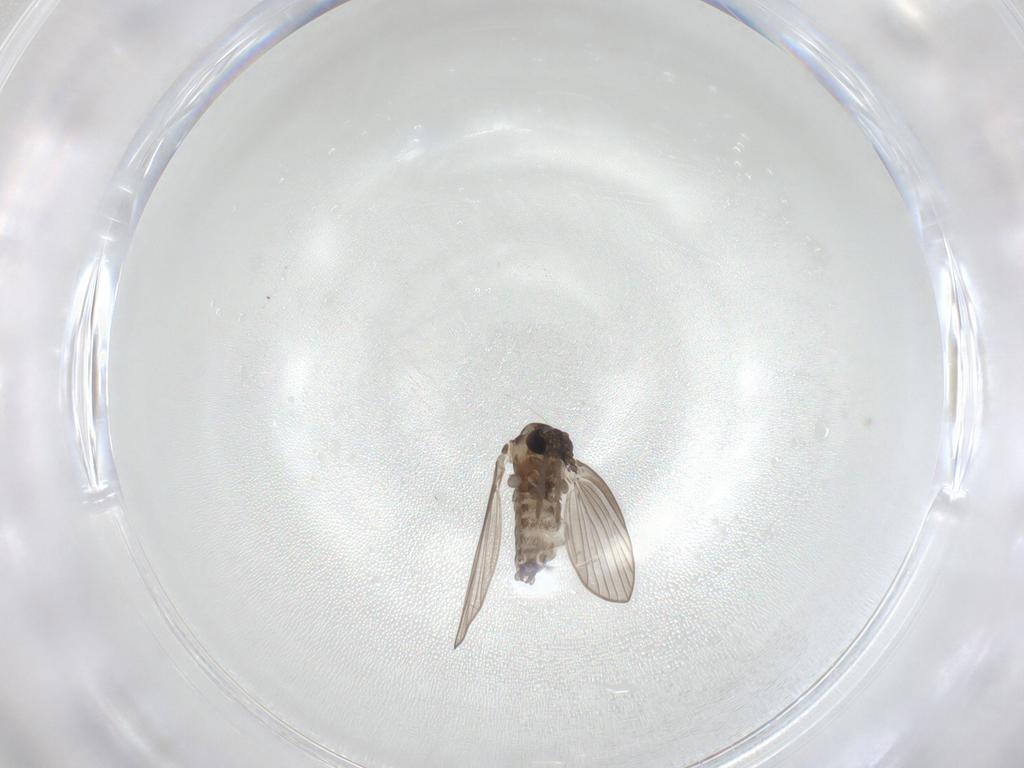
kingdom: Animalia
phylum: Arthropoda
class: Insecta
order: Diptera
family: Psychodidae
